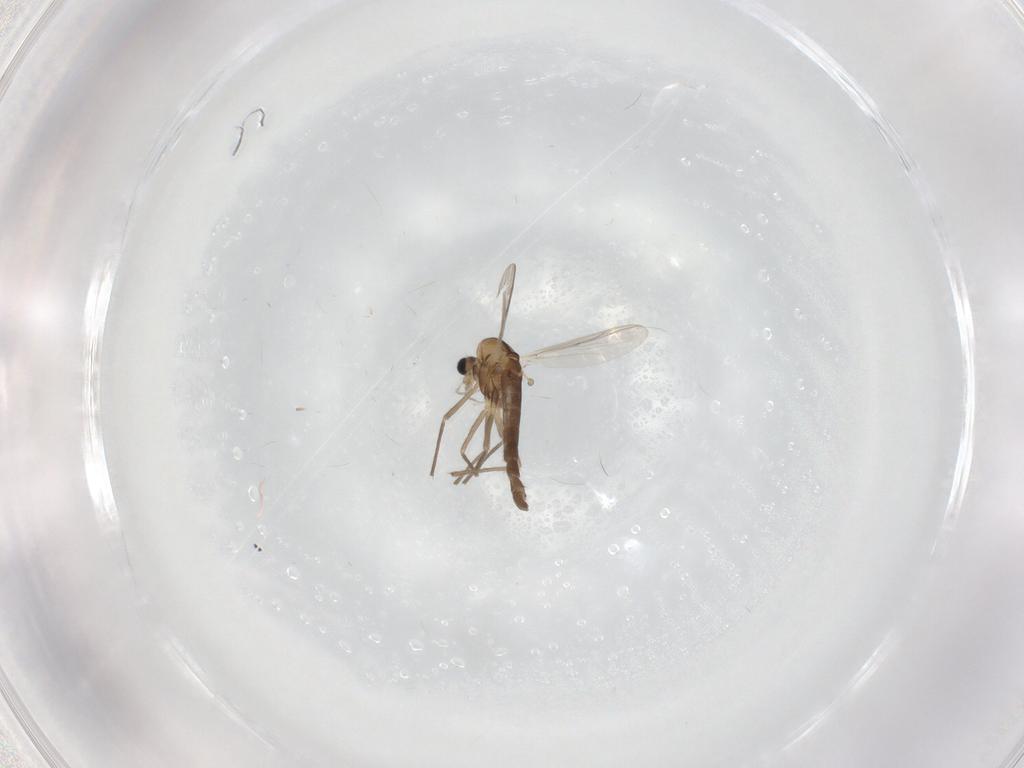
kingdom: Animalia
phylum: Arthropoda
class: Insecta
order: Diptera
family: Chironomidae
